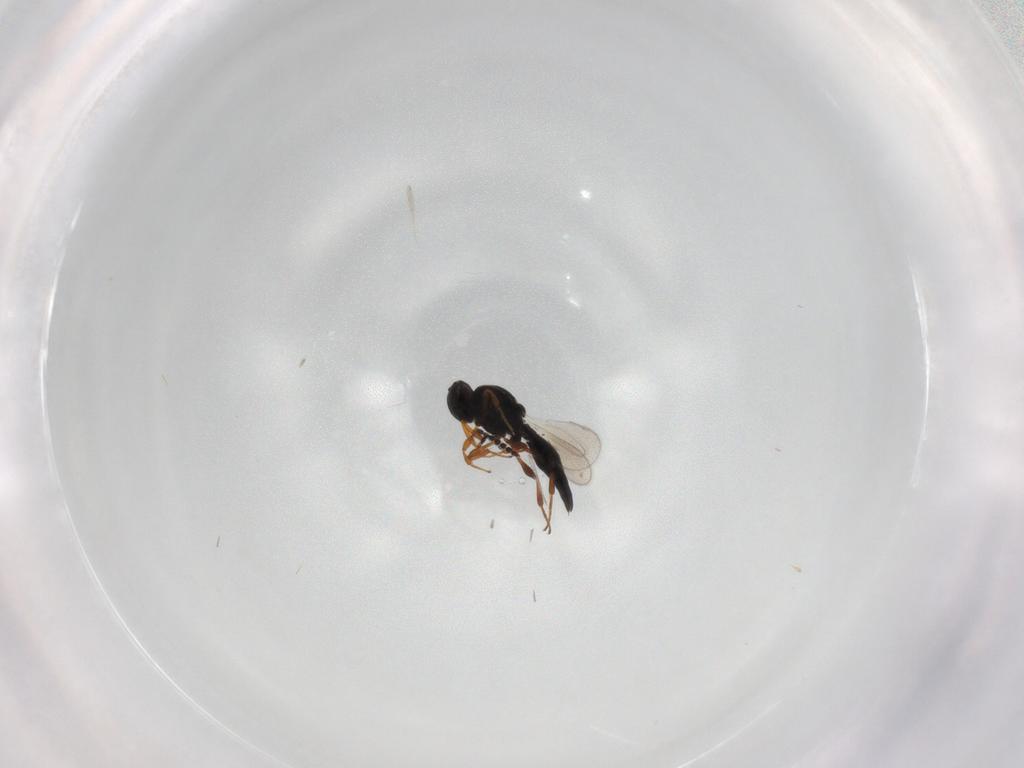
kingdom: Animalia
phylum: Arthropoda
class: Insecta
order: Hymenoptera
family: Platygastridae
